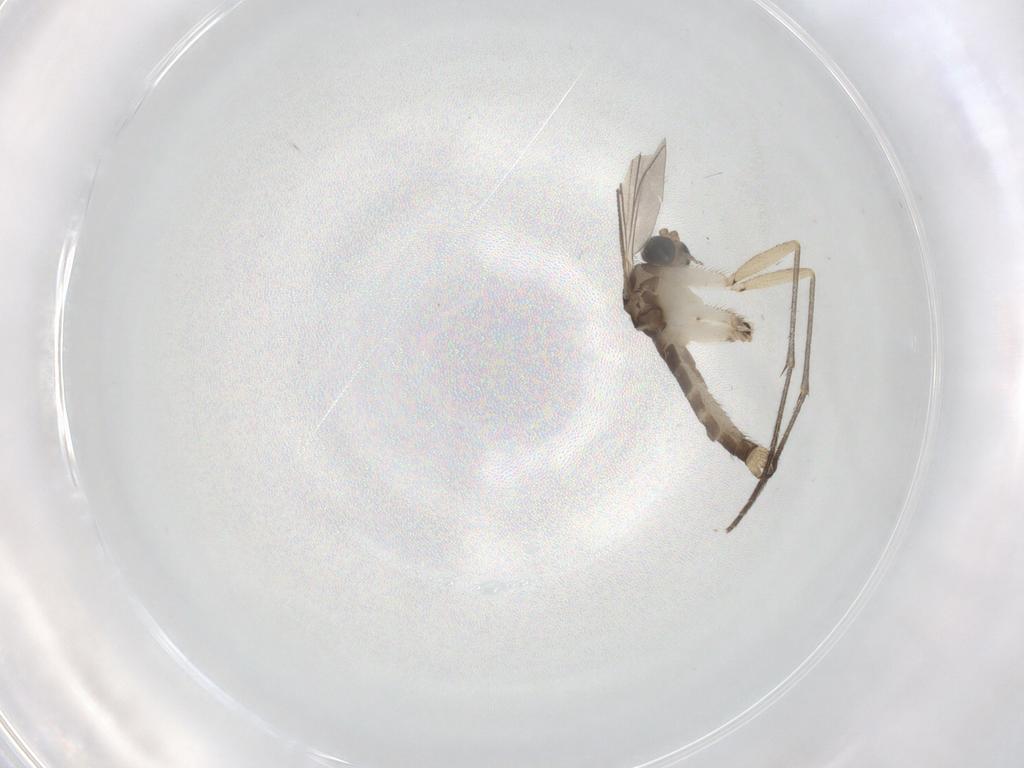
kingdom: Animalia
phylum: Arthropoda
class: Insecta
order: Diptera
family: Sciaridae
